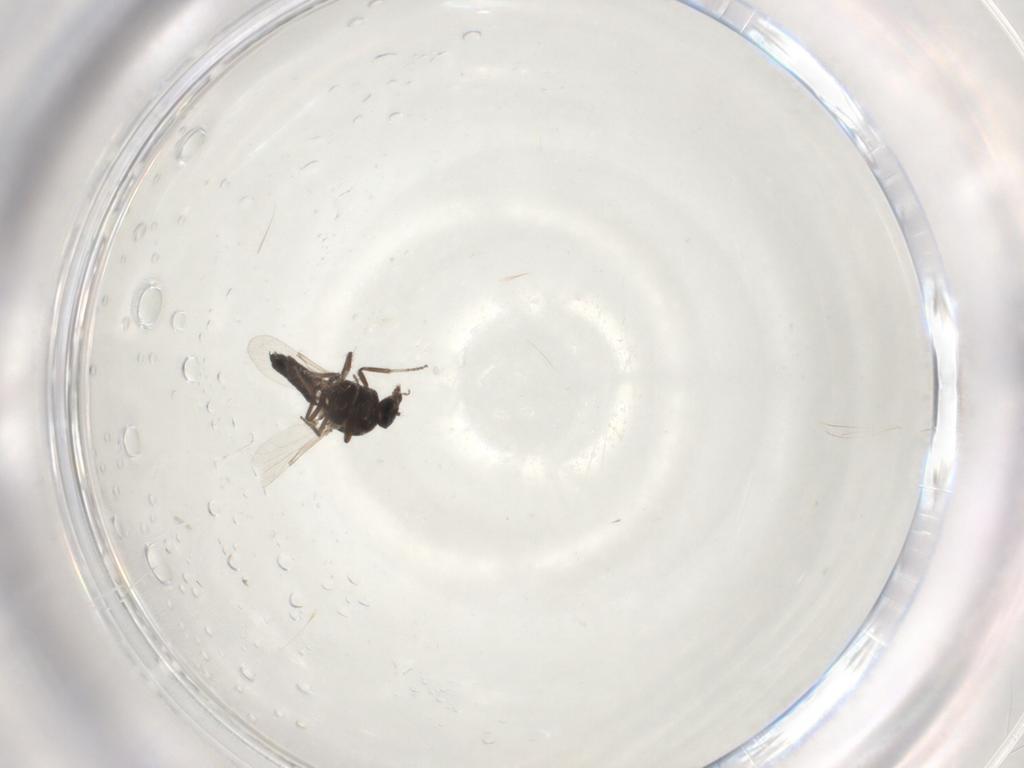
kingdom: Animalia
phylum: Arthropoda
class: Insecta
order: Diptera
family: Ceratopogonidae
